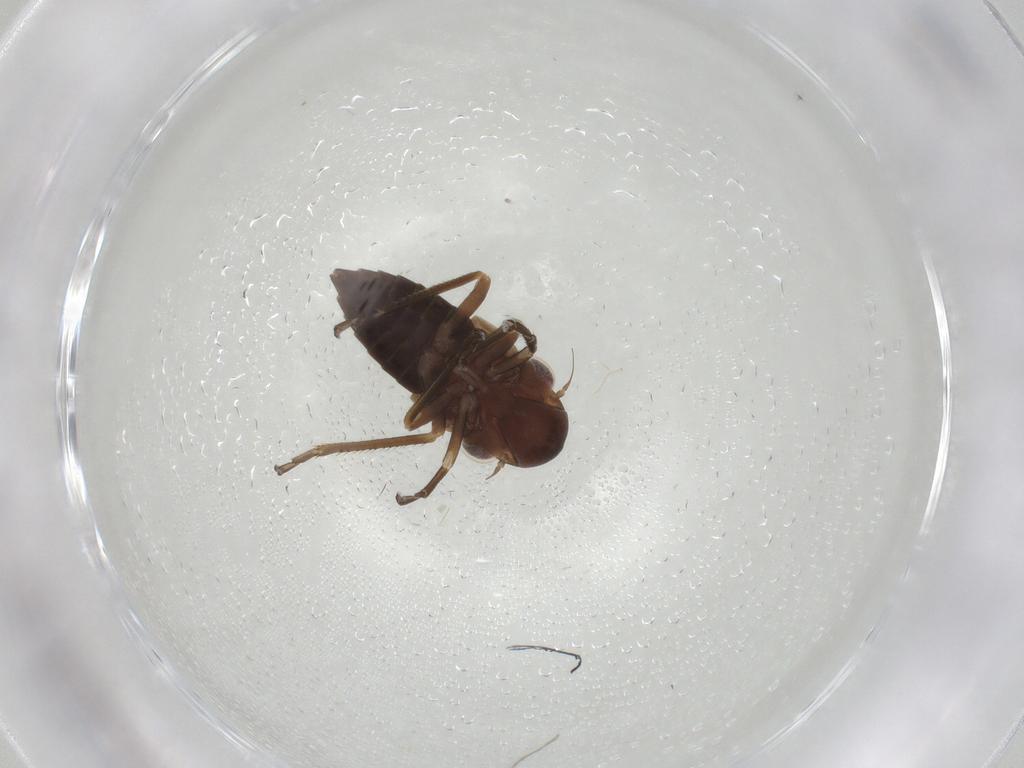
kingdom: Animalia
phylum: Arthropoda
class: Insecta
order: Hemiptera
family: Cicadellidae
